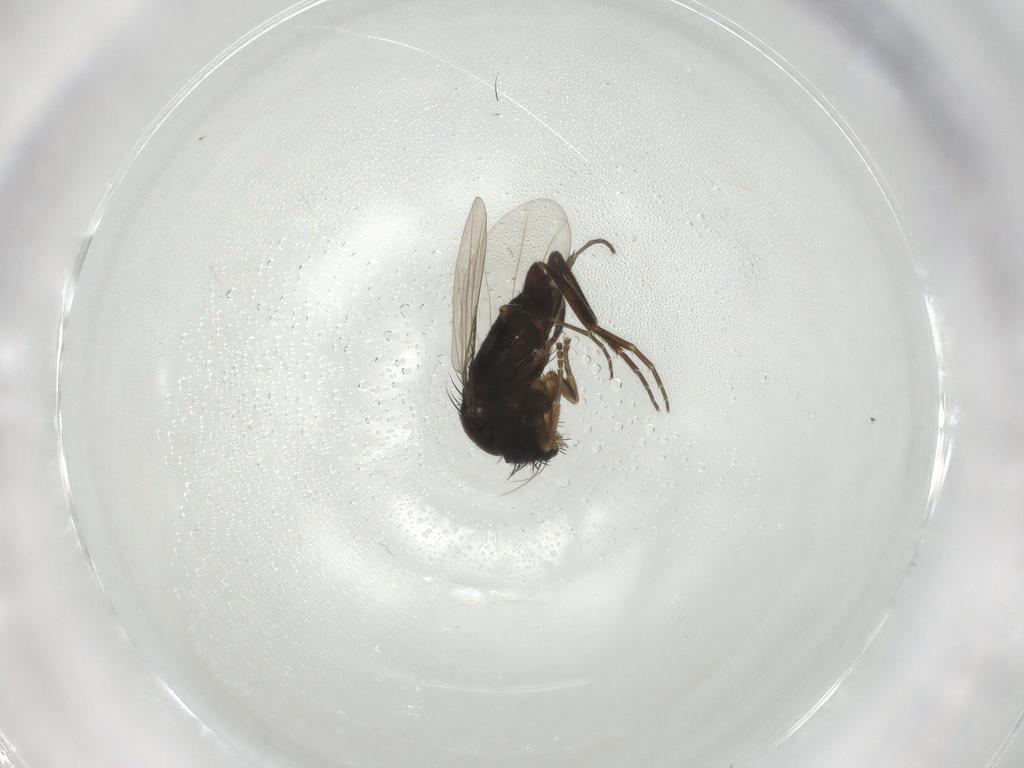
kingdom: Animalia
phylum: Arthropoda
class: Insecta
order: Diptera
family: Phoridae
